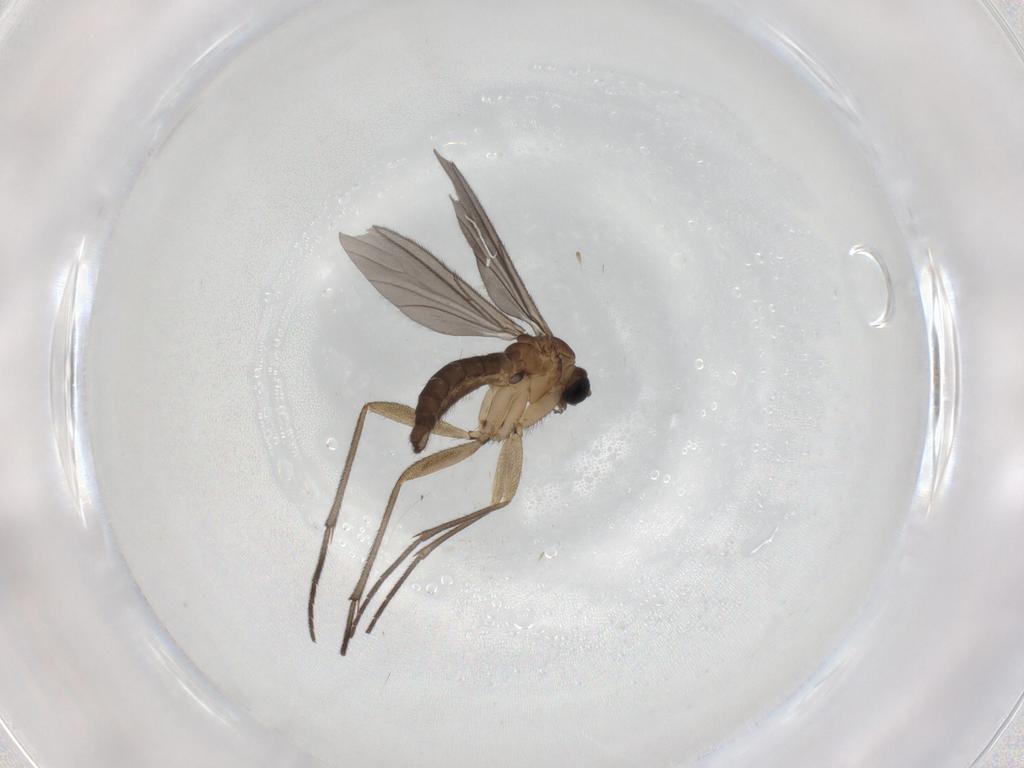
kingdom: Animalia
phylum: Arthropoda
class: Insecta
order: Diptera
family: Sciaridae
